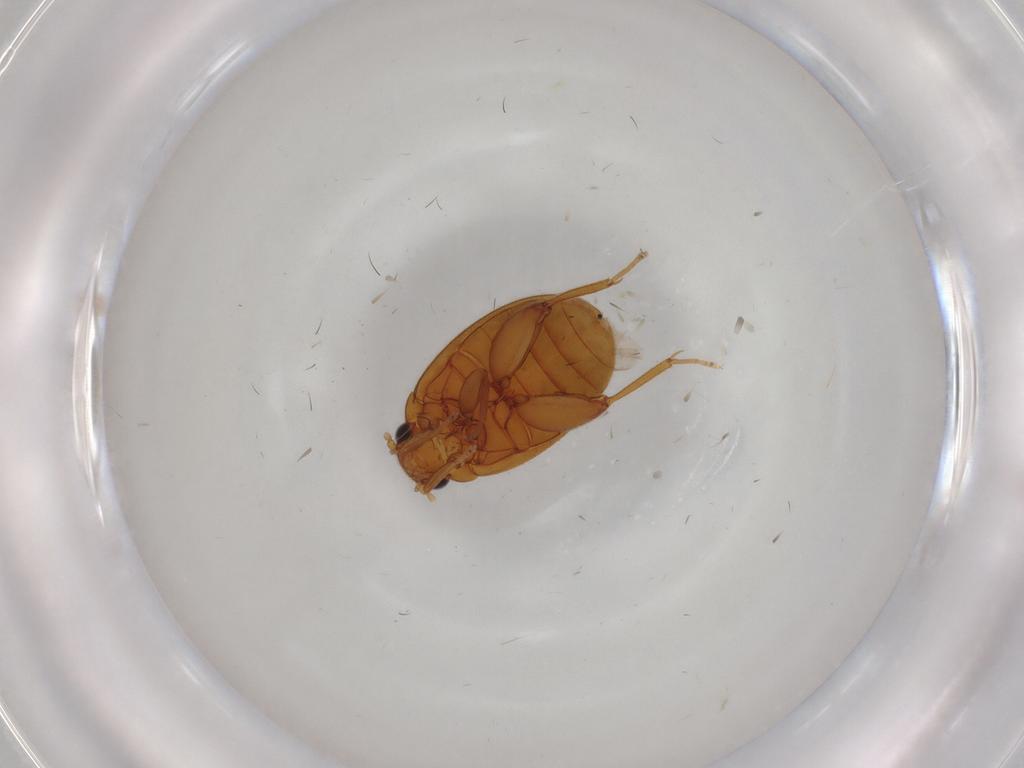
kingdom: Animalia
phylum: Arthropoda
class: Insecta
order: Coleoptera
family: Scirtidae
